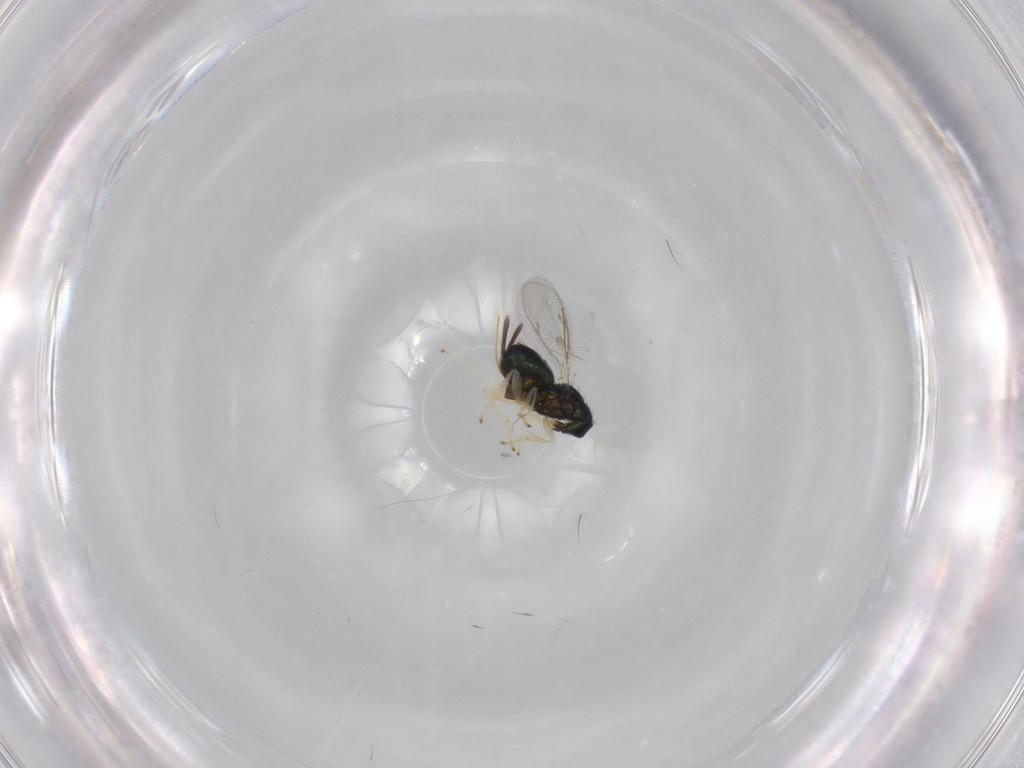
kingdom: Animalia
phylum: Arthropoda
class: Insecta
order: Hymenoptera
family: Pteromalidae
